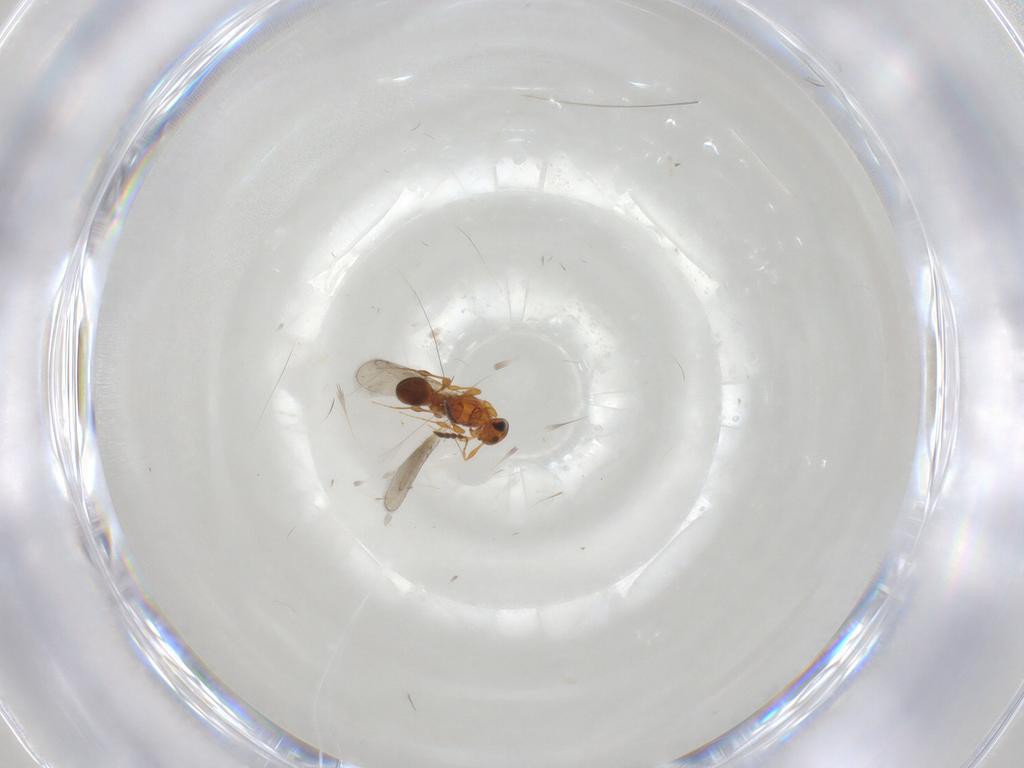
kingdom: Animalia
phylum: Arthropoda
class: Insecta
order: Hymenoptera
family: Platygastridae
